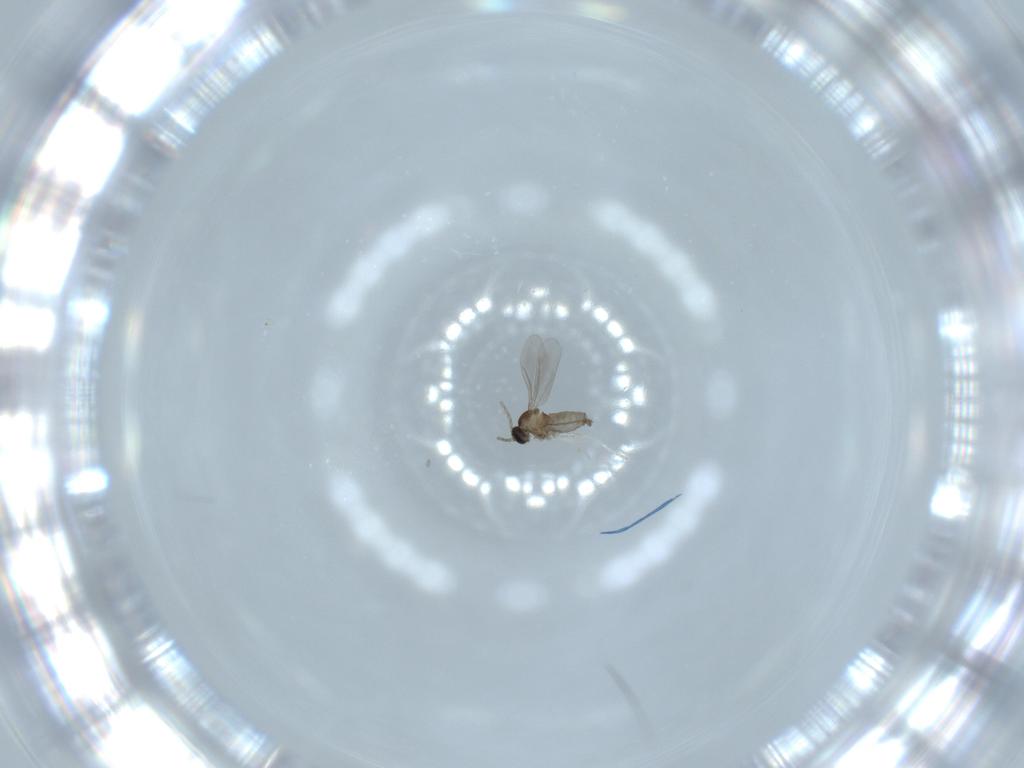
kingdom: Animalia
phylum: Arthropoda
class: Insecta
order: Diptera
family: Cecidomyiidae
